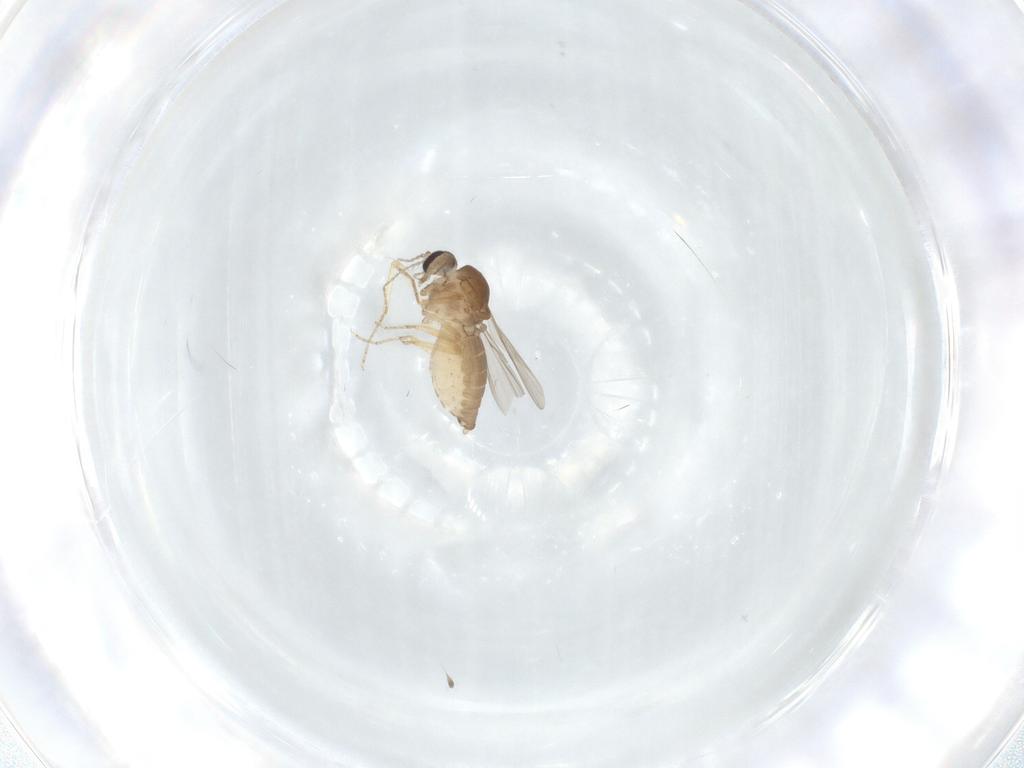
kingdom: Animalia
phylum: Arthropoda
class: Insecta
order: Diptera
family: Ceratopogonidae
